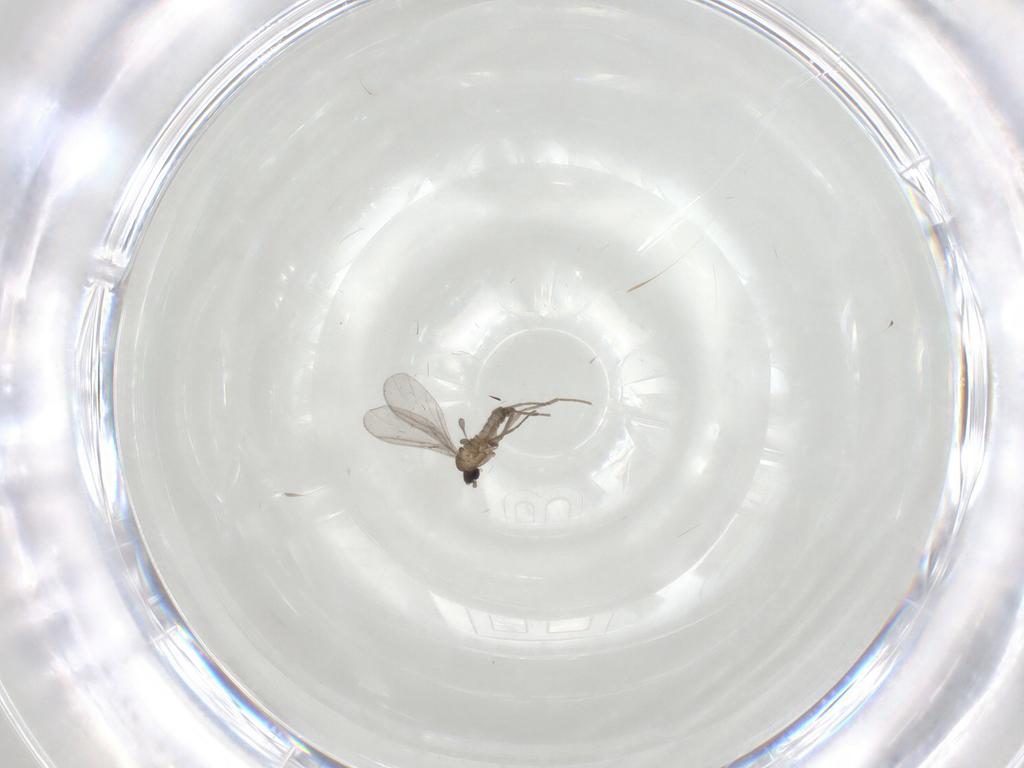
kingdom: Animalia
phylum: Arthropoda
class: Insecta
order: Diptera
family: Sciaridae
